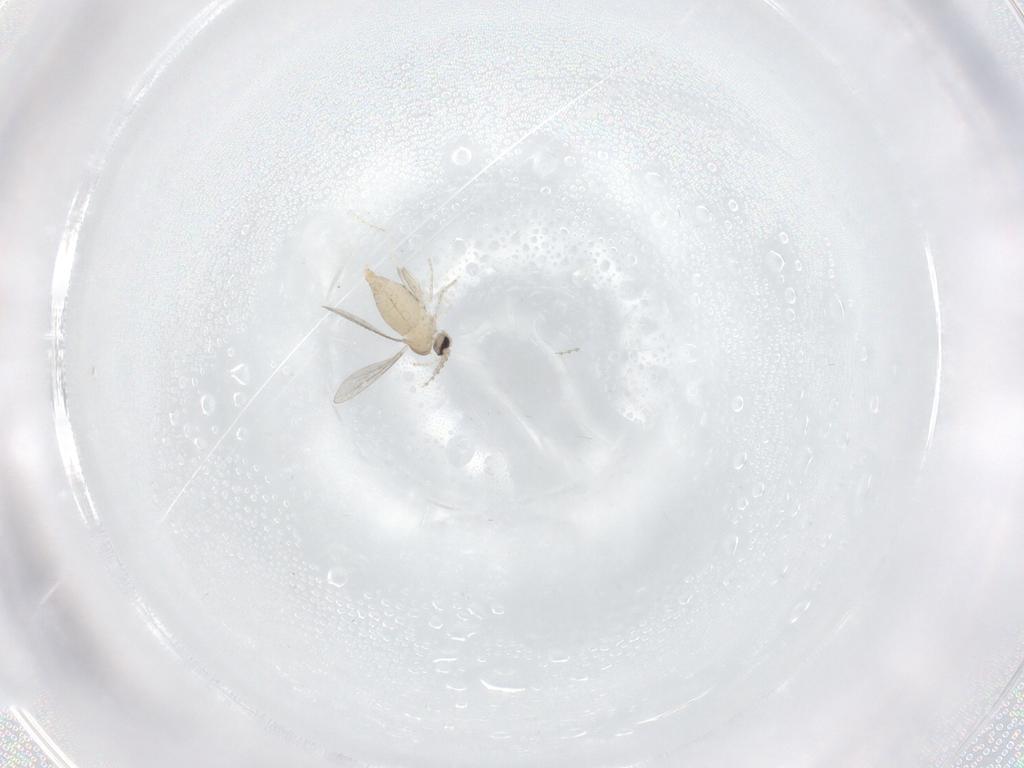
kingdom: Animalia
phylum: Arthropoda
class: Insecta
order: Diptera
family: Cecidomyiidae
